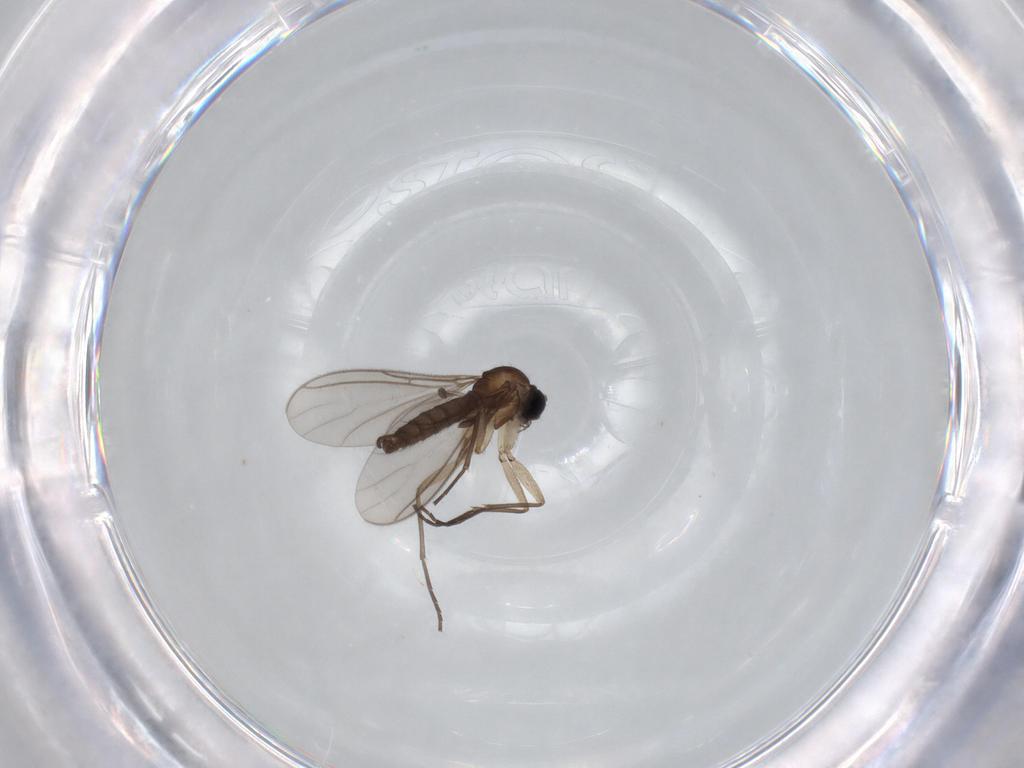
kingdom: Animalia
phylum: Arthropoda
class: Insecta
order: Diptera
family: Sciaridae
